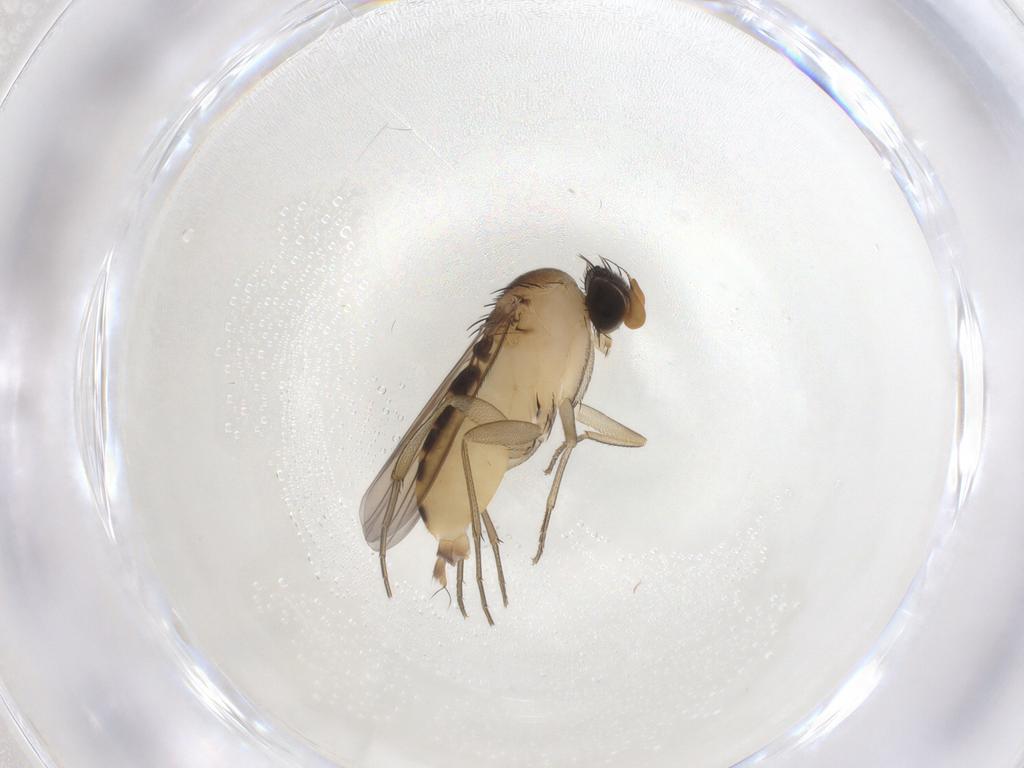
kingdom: Animalia
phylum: Arthropoda
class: Insecta
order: Diptera
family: Phoridae
